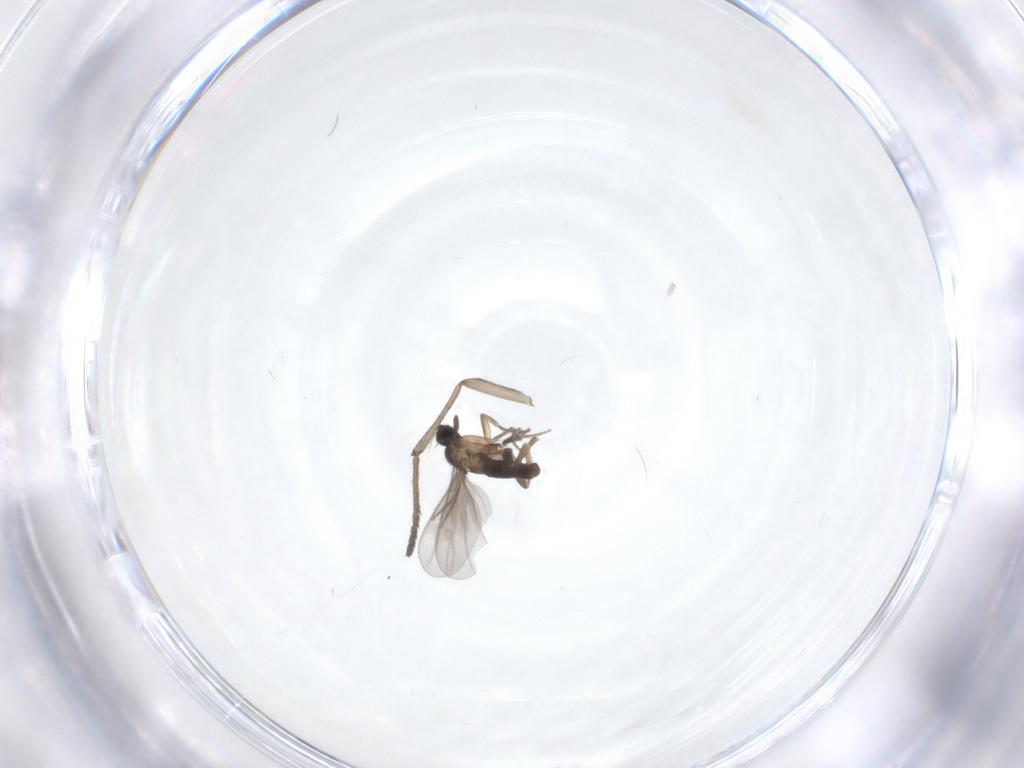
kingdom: Animalia
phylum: Arthropoda
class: Insecta
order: Diptera
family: Psychodidae
